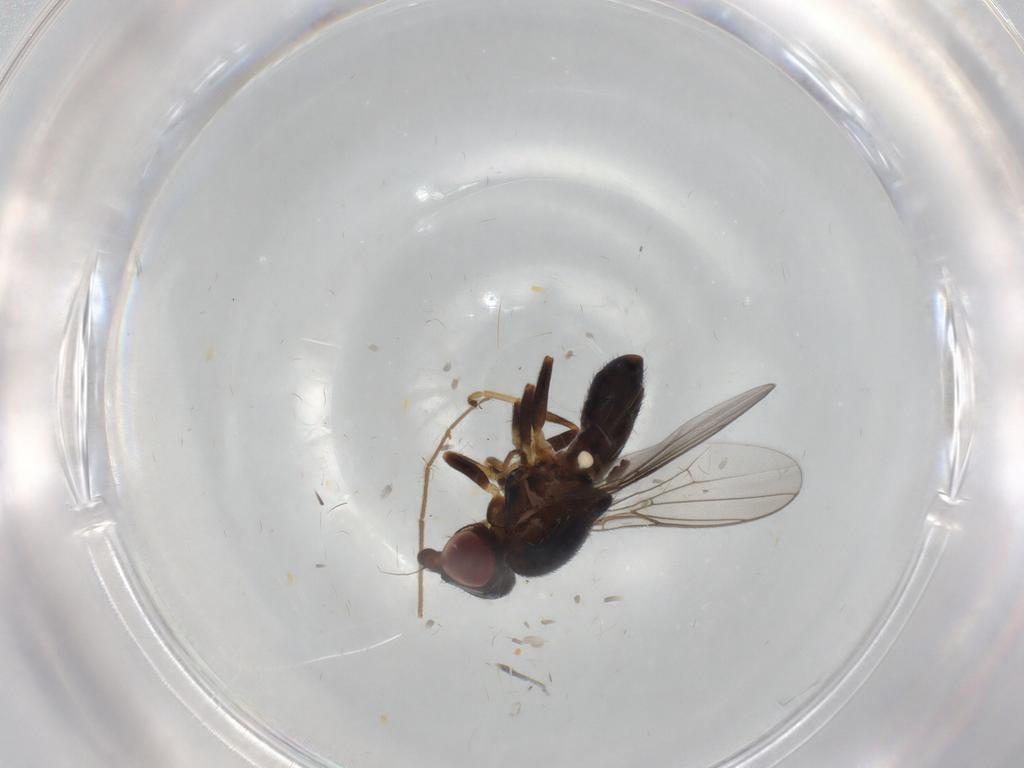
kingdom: Animalia
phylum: Arthropoda
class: Insecta
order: Diptera
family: Chloropidae
